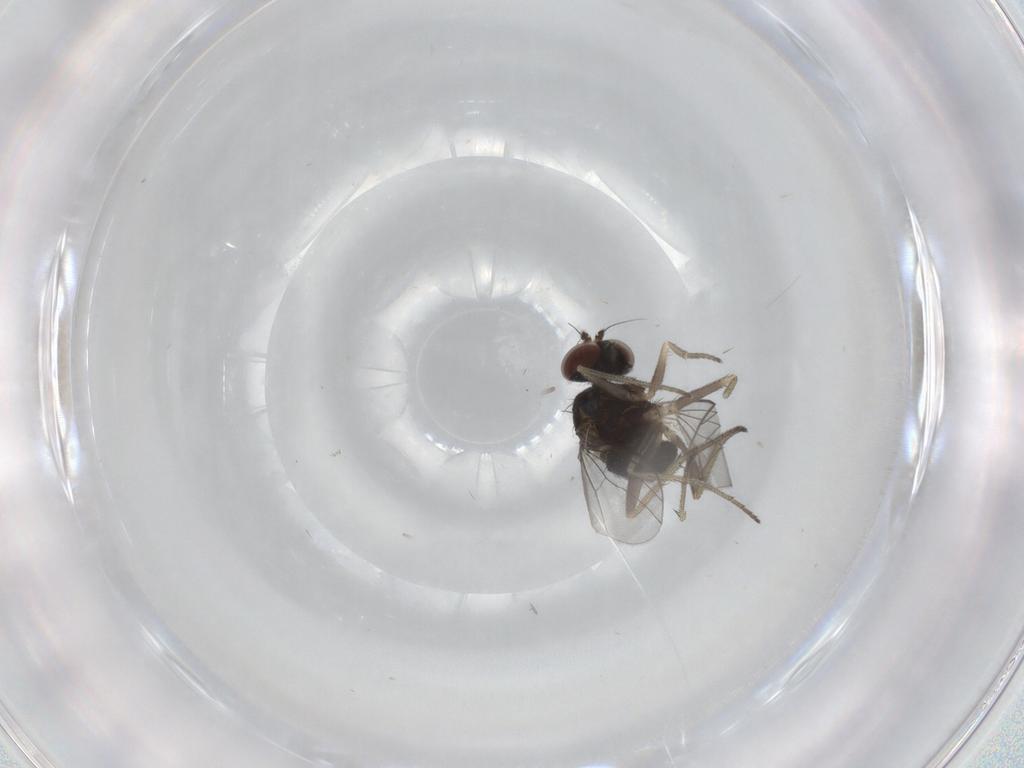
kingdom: Animalia
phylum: Arthropoda
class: Insecta
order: Diptera
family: Dolichopodidae
